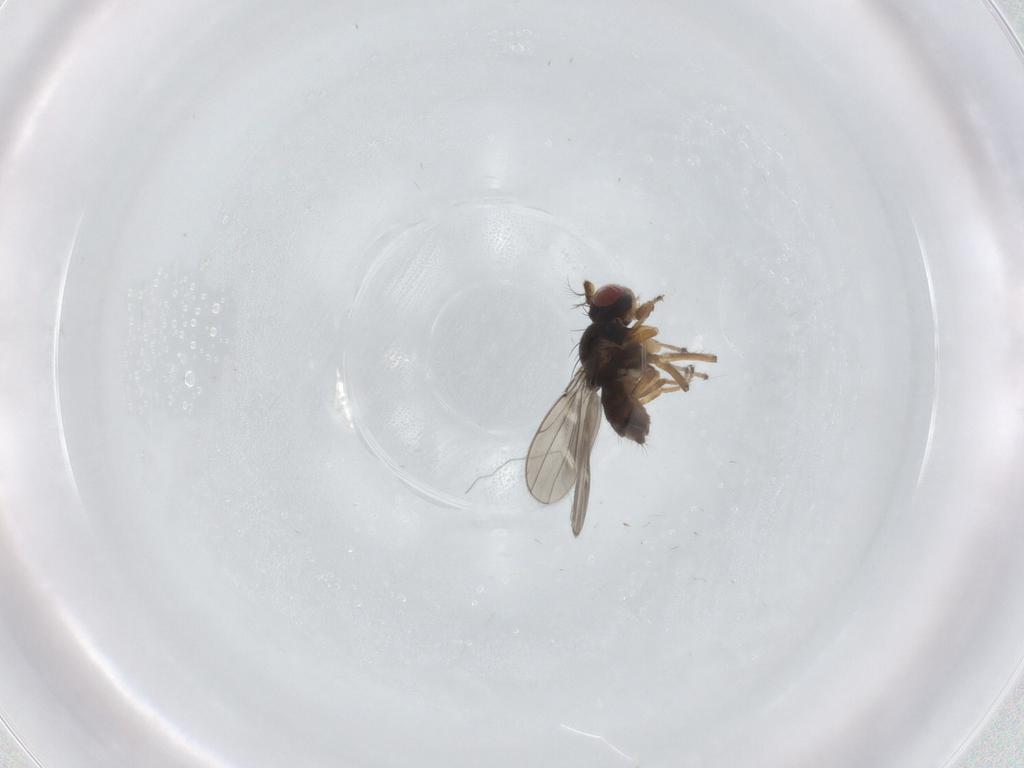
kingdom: Animalia
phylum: Arthropoda
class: Insecta
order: Diptera
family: Ephydridae
